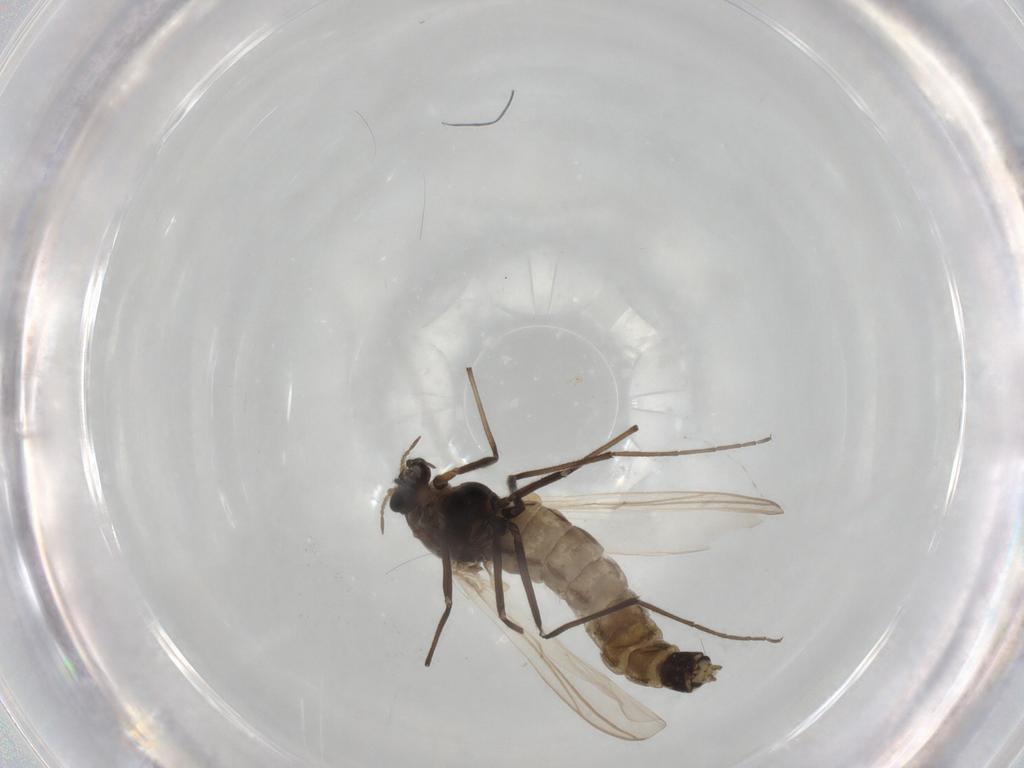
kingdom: Animalia
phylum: Arthropoda
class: Insecta
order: Diptera
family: Chironomidae
